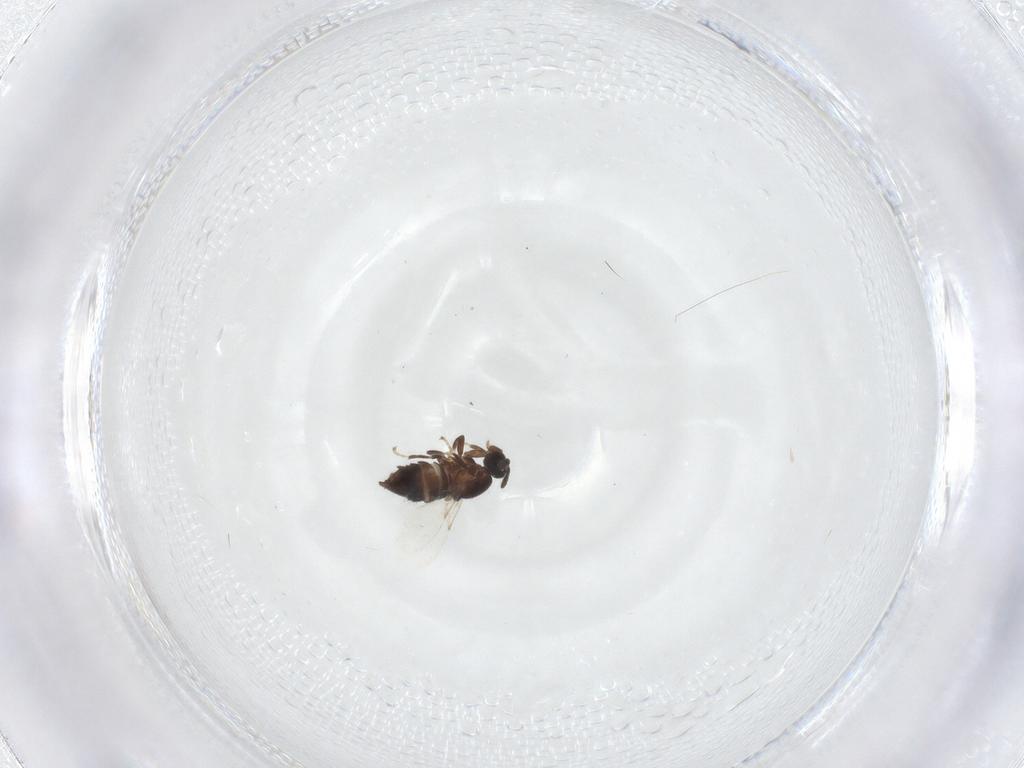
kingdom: Animalia
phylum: Arthropoda
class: Insecta
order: Diptera
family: Scatopsidae
